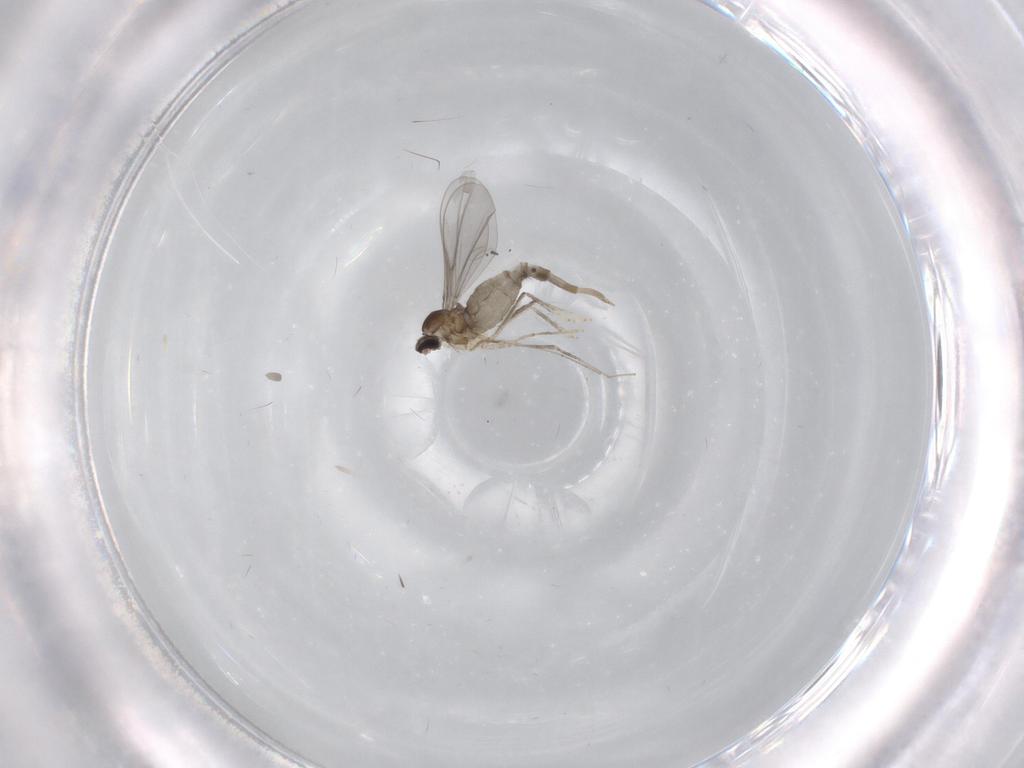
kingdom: Animalia
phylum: Arthropoda
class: Insecta
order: Diptera
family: Cecidomyiidae
